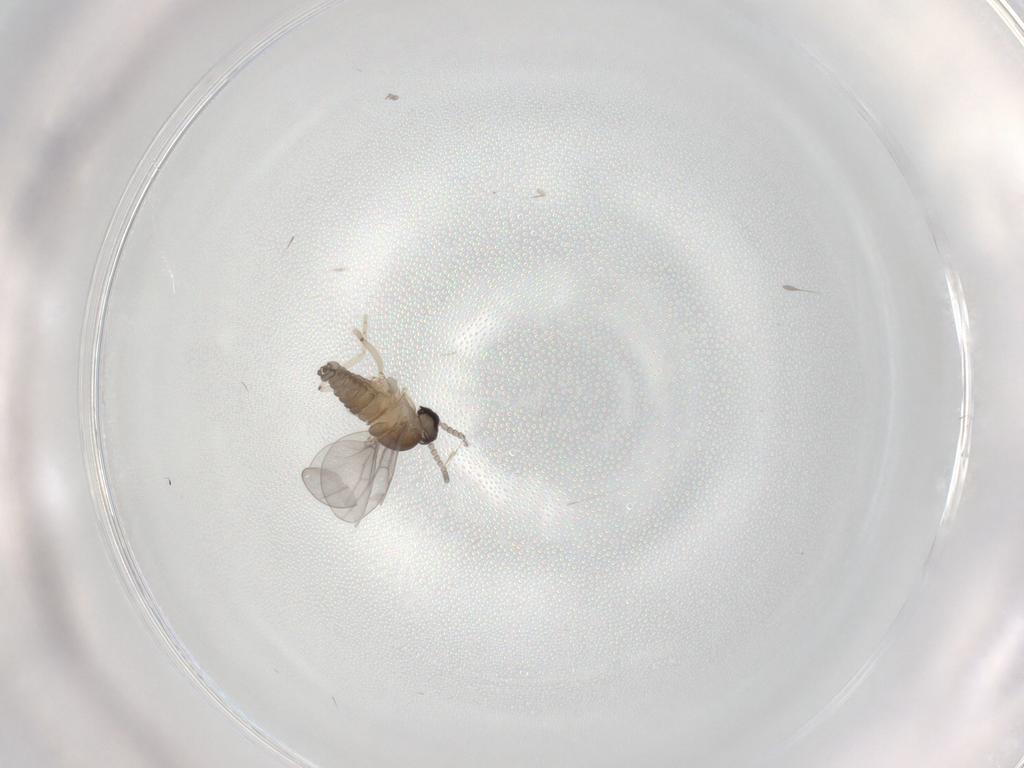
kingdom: Animalia
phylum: Arthropoda
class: Insecta
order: Diptera
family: Cecidomyiidae
